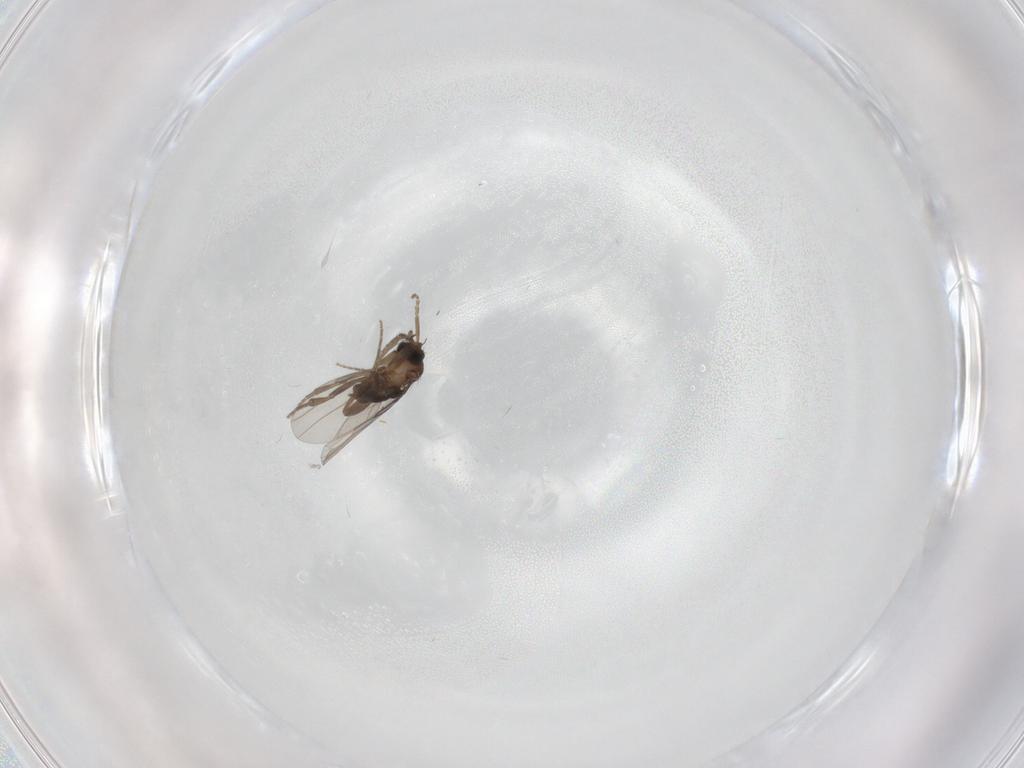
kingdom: Animalia
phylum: Arthropoda
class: Insecta
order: Diptera
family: Sciaridae
